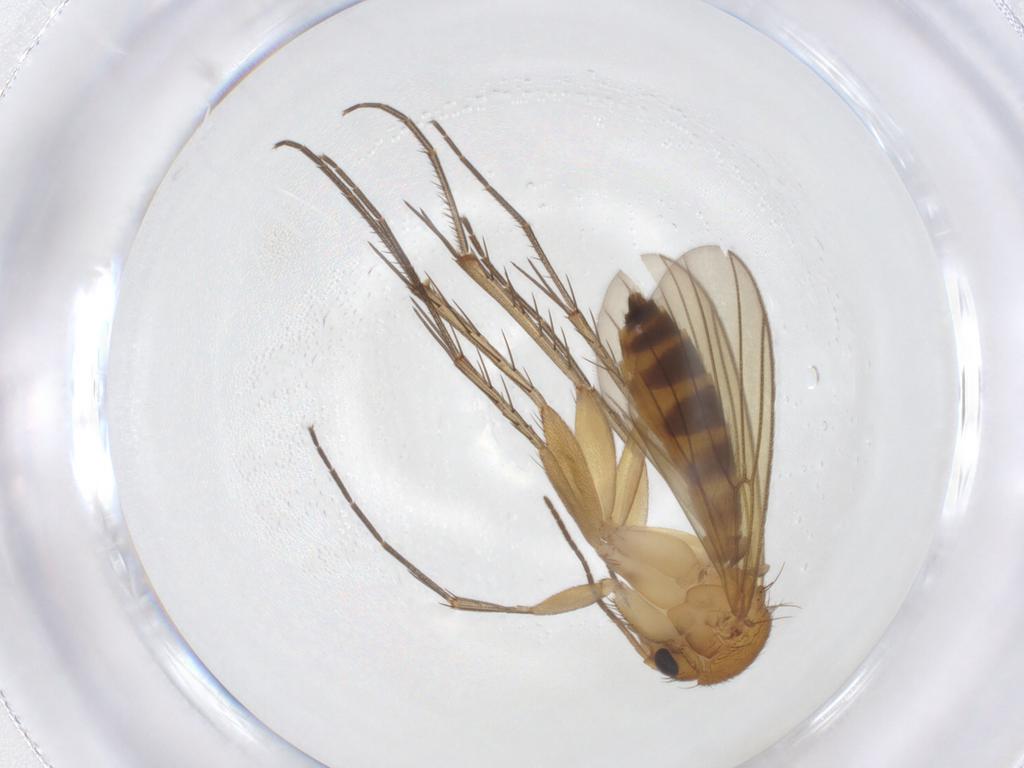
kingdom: Animalia
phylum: Arthropoda
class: Insecta
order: Diptera
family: Mycetophilidae
